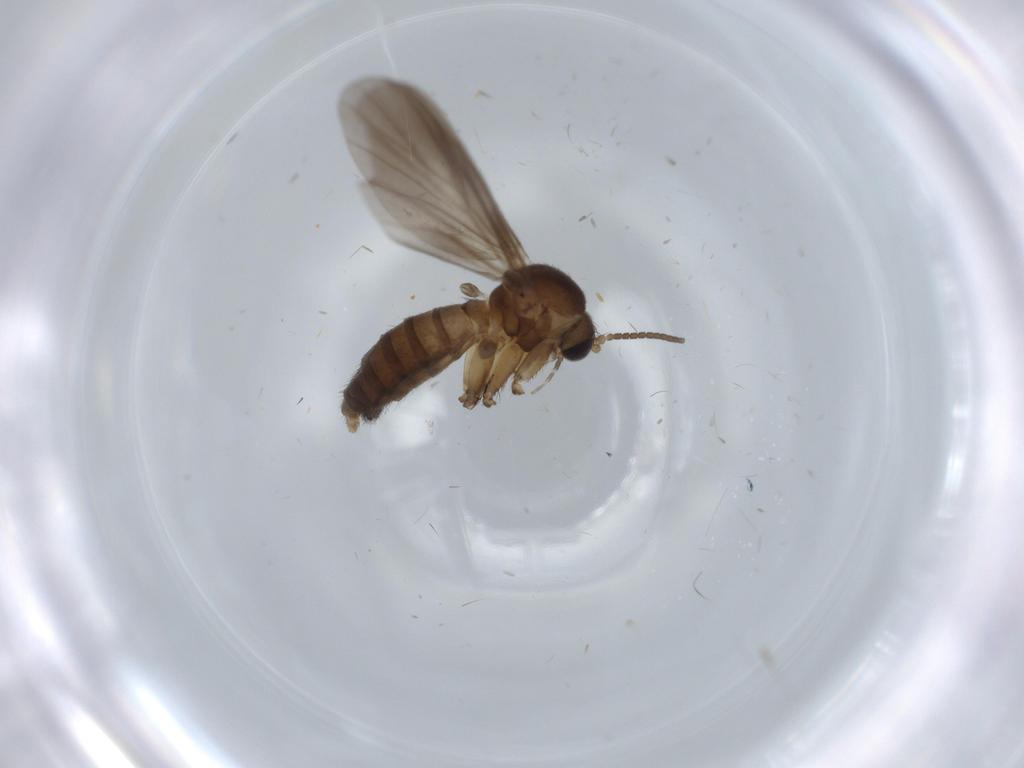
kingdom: Animalia
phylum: Arthropoda
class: Insecta
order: Diptera
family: Mycetophilidae
